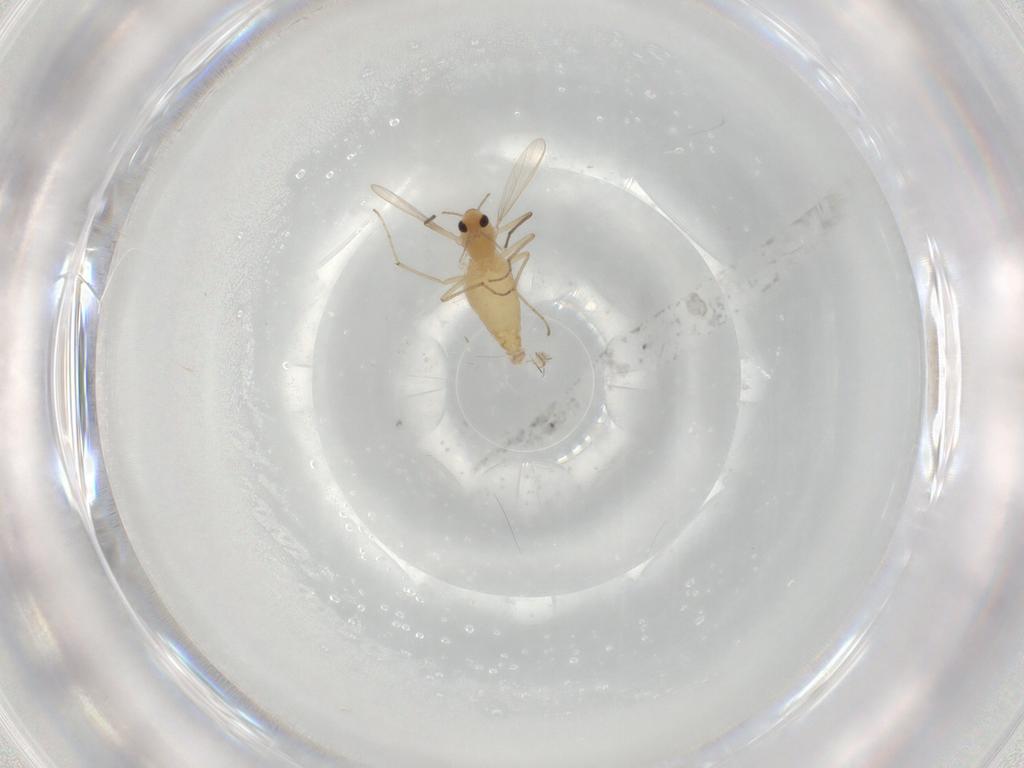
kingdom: Animalia
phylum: Arthropoda
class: Insecta
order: Diptera
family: Chironomidae
